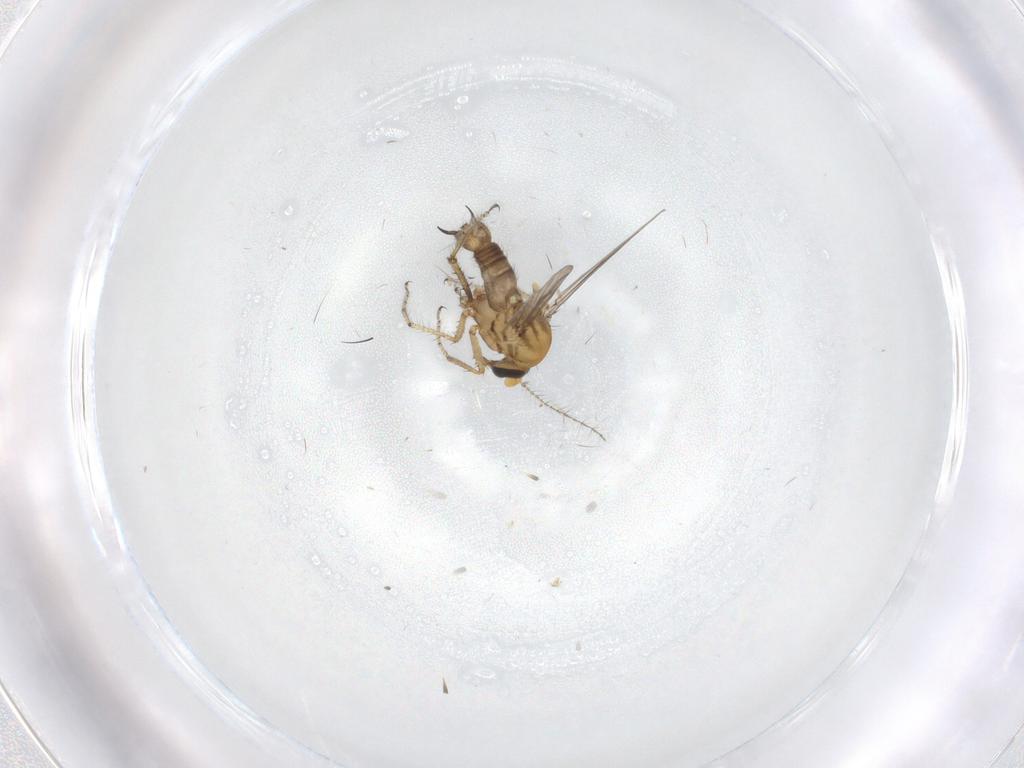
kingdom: Animalia
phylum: Arthropoda
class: Insecta
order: Diptera
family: Ceratopogonidae
